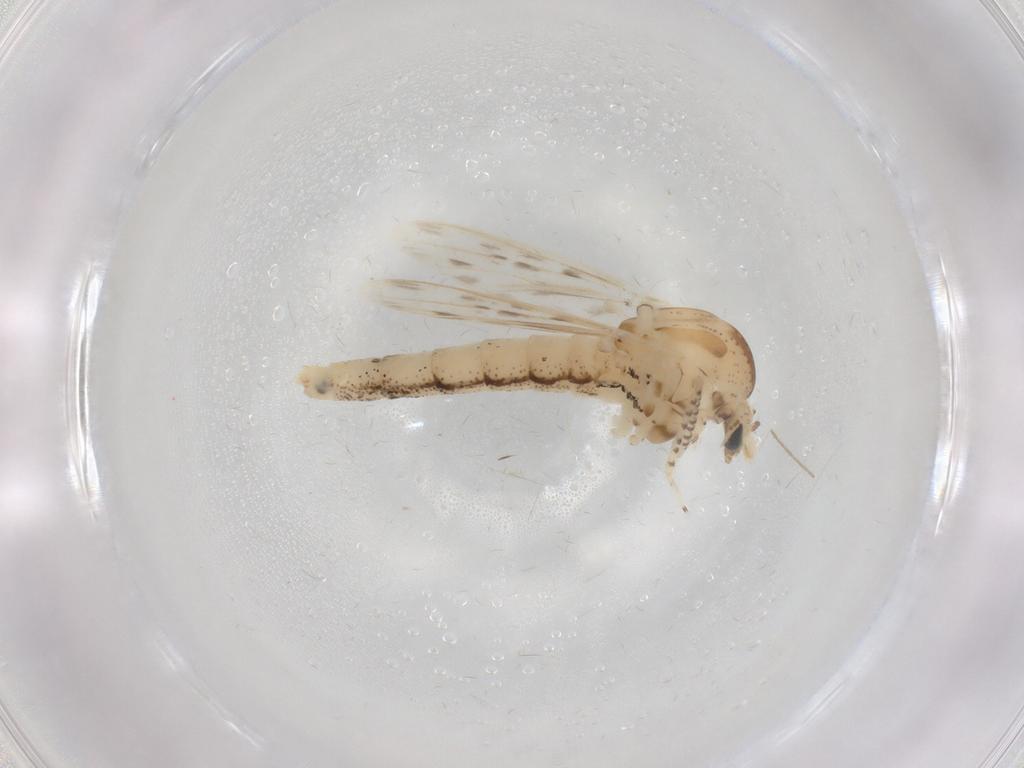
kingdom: Animalia
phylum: Arthropoda
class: Insecta
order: Diptera
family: Chaoboridae
